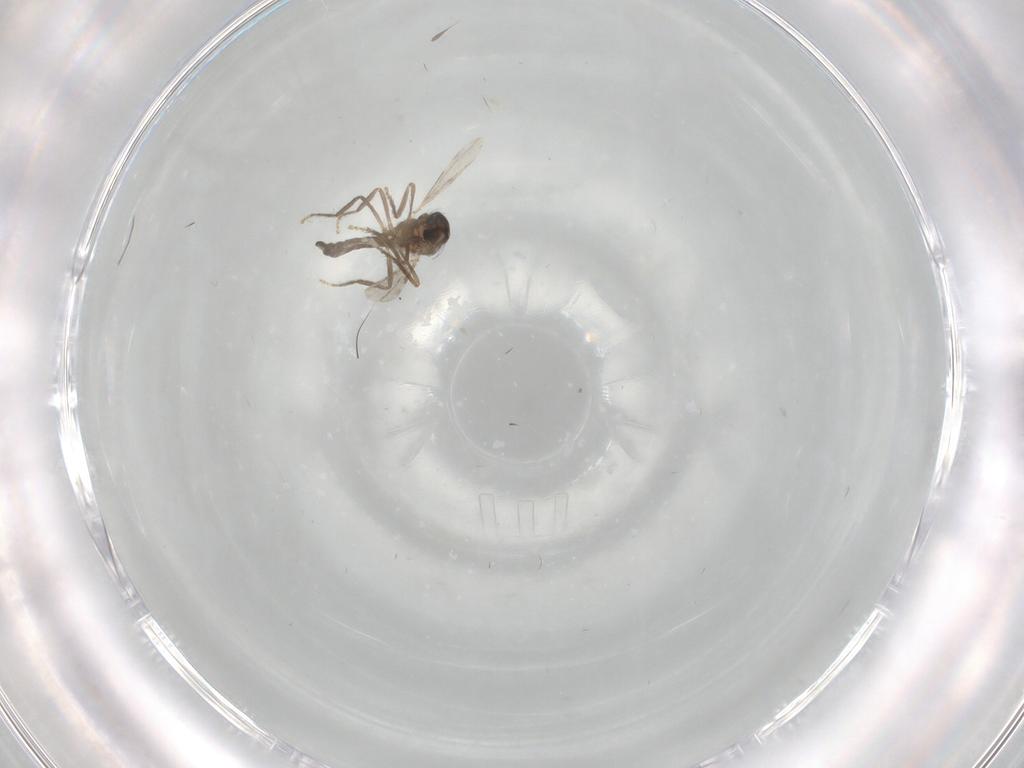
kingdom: Animalia
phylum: Arthropoda
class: Insecta
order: Diptera
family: Ceratopogonidae
